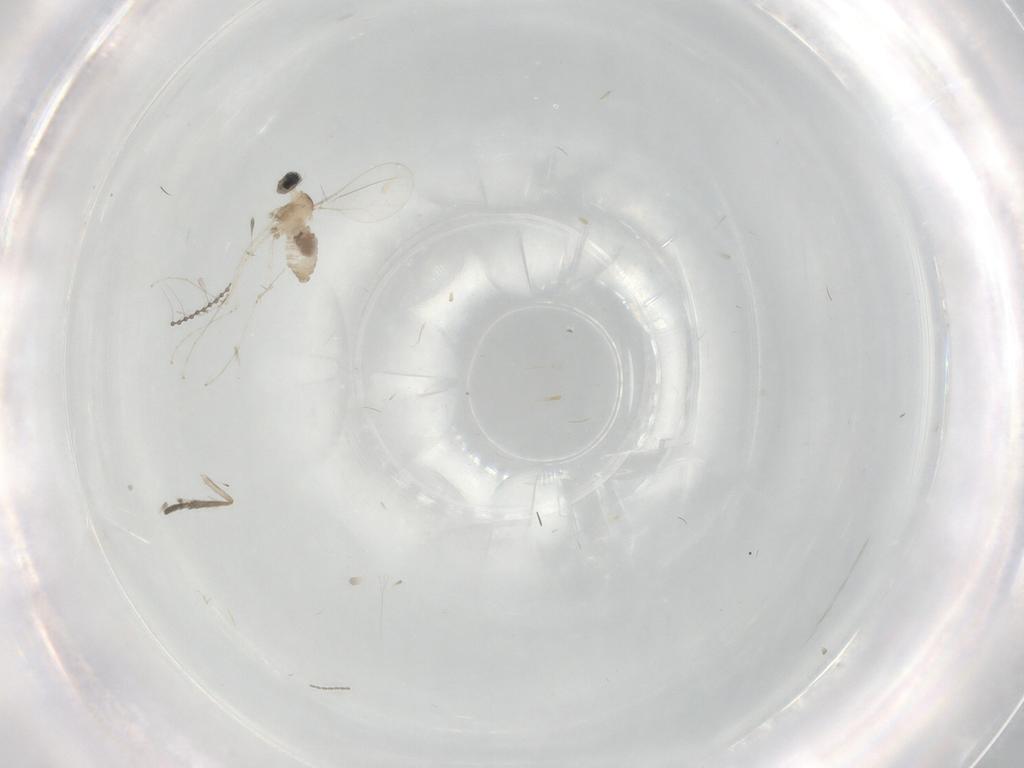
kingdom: Animalia
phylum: Arthropoda
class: Insecta
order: Diptera
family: Cecidomyiidae
